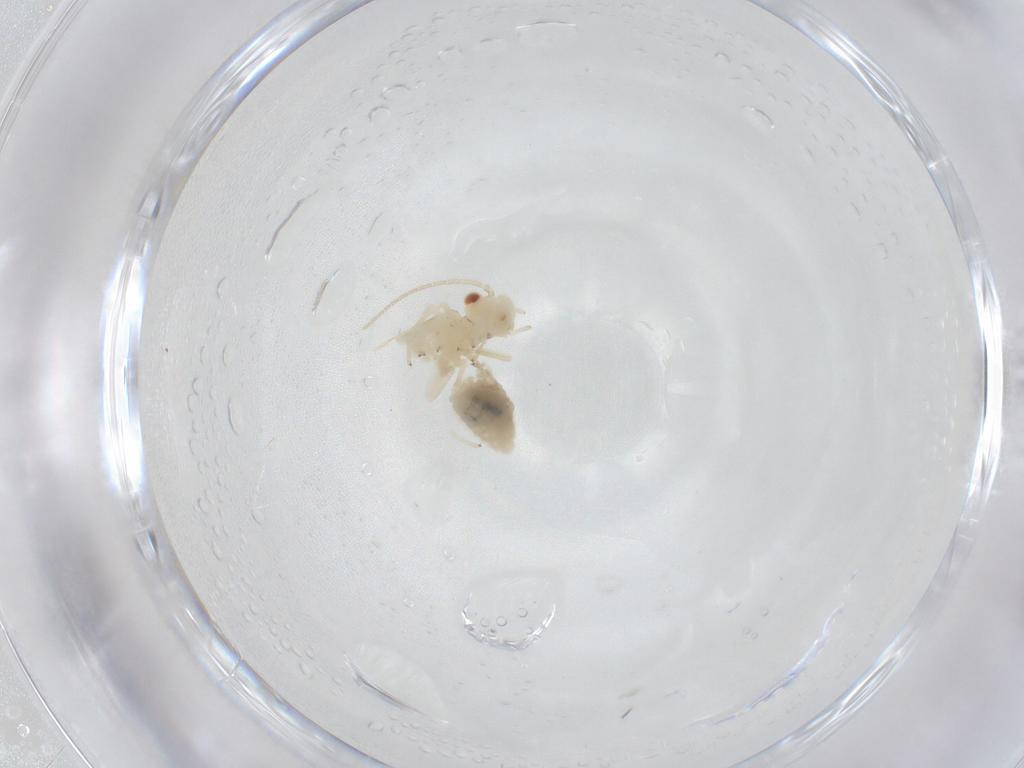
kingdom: Animalia
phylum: Arthropoda
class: Insecta
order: Psocodea
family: Caeciliusidae
